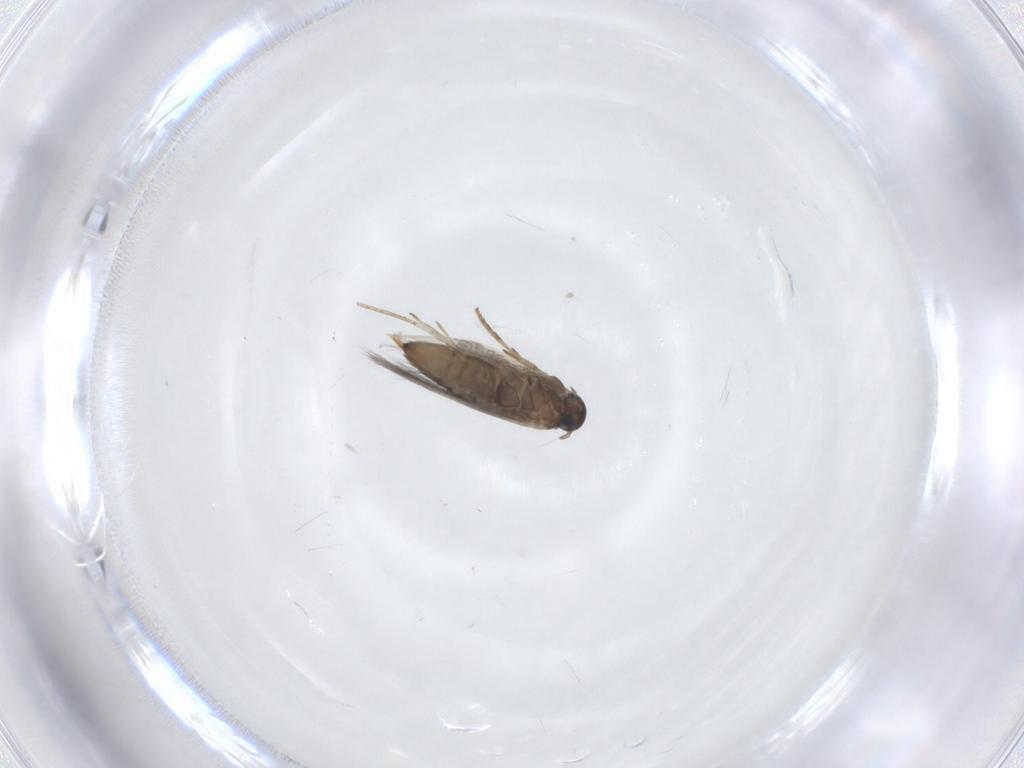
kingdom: Animalia
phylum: Arthropoda
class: Insecta
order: Lepidoptera
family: Heliozelidae
